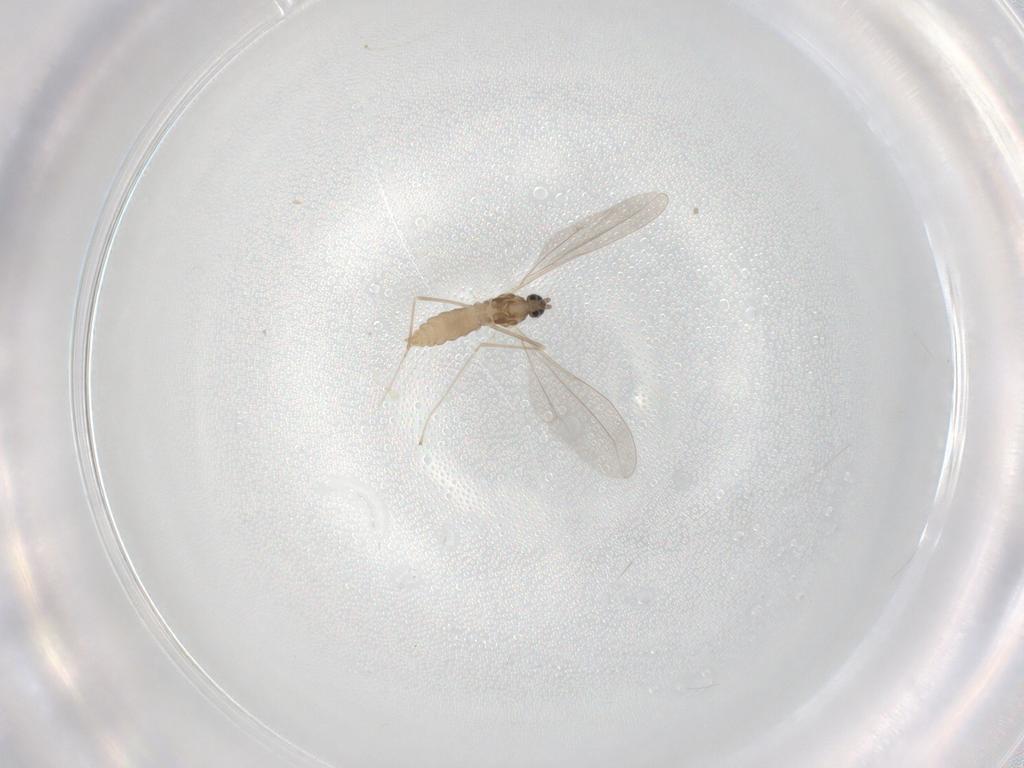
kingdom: Animalia
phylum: Arthropoda
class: Insecta
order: Diptera
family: Cecidomyiidae
